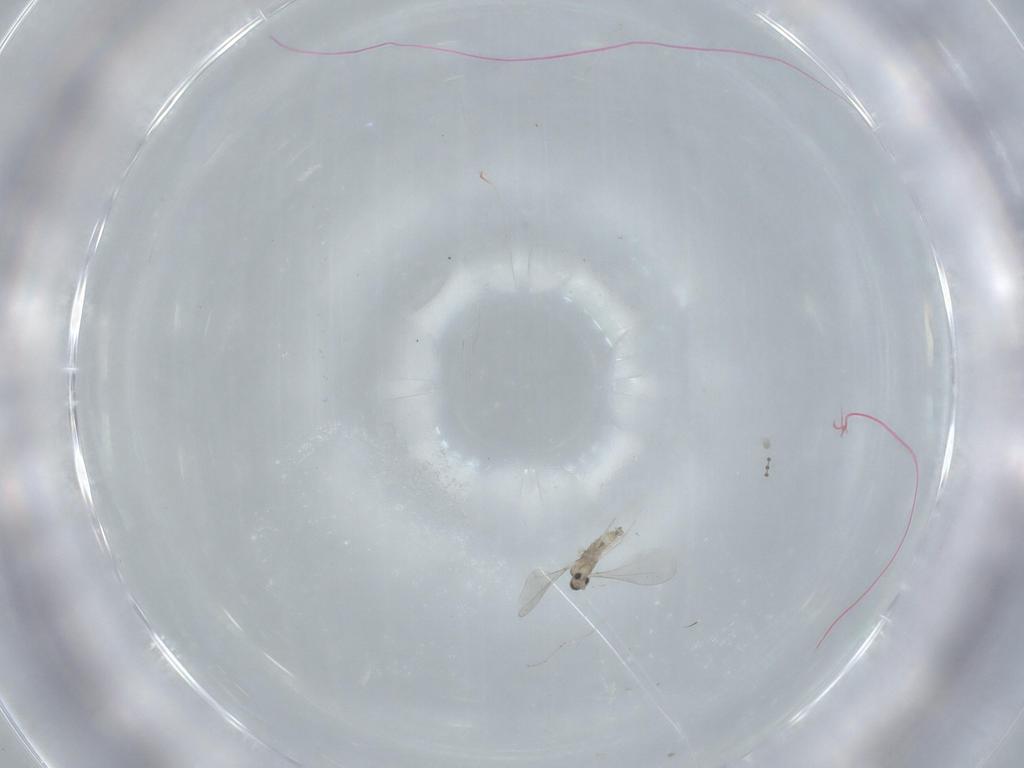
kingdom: Animalia
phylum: Arthropoda
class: Insecta
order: Diptera
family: Cecidomyiidae
